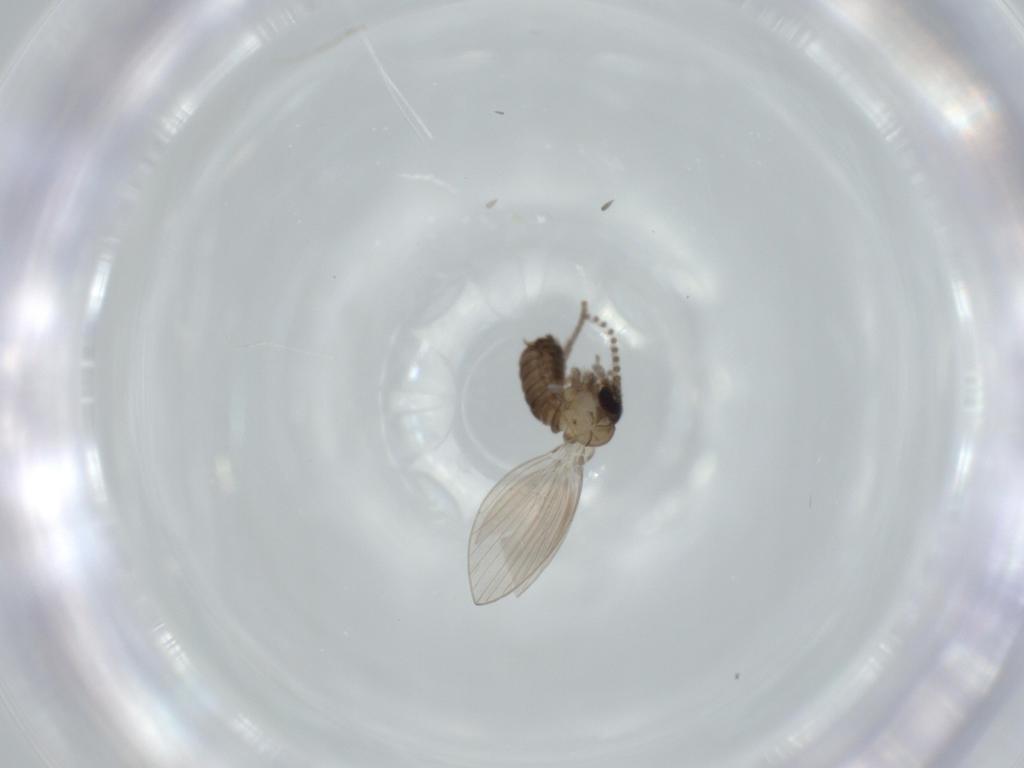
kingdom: Animalia
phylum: Arthropoda
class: Insecta
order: Diptera
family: Psychodidae
